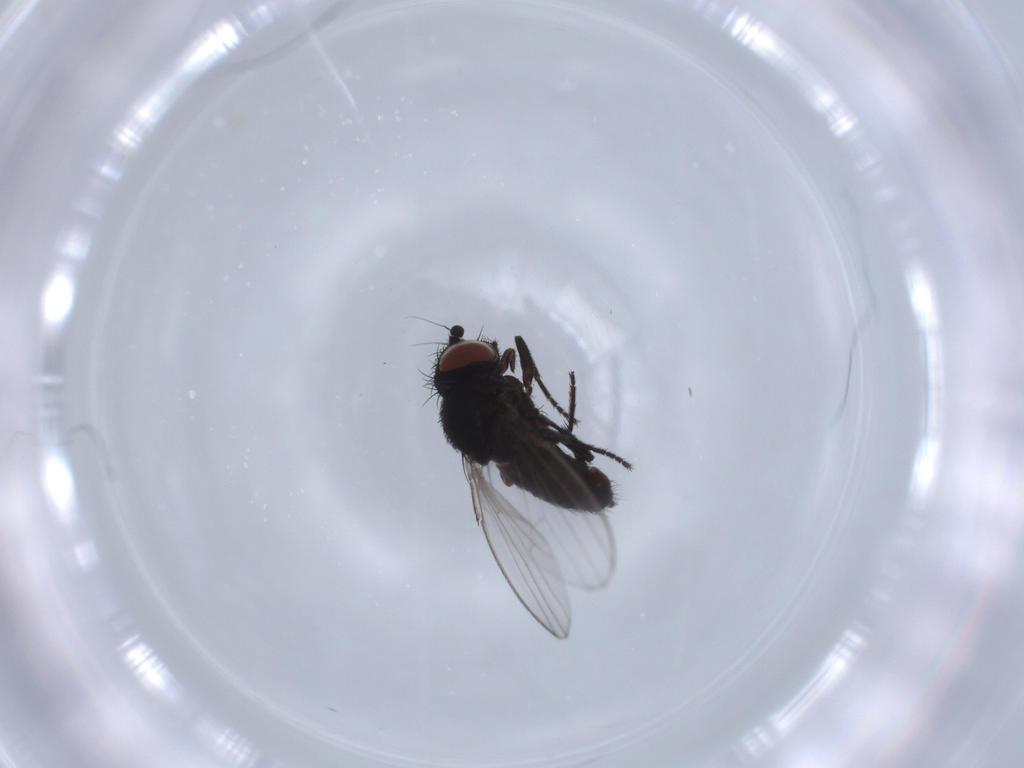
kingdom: Animalia
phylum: Arthropoda
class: Insecta
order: Diptera
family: Milichiidae
